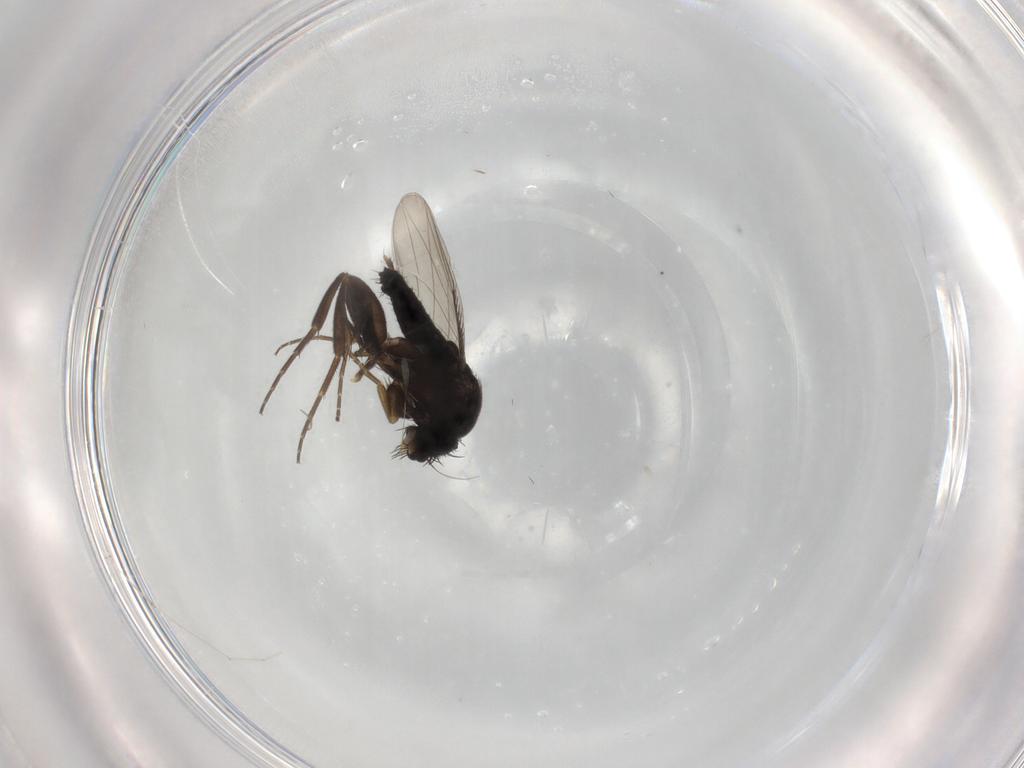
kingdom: Animalia
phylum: Arthropoda
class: Insecta
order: Diptera
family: Phoridae
